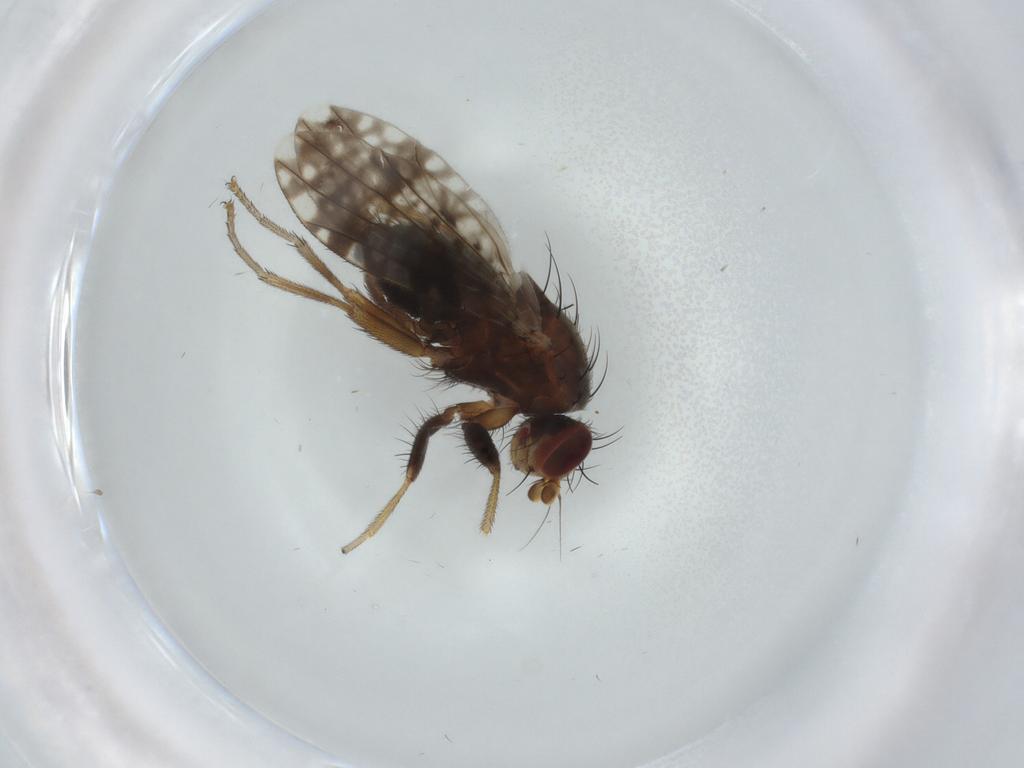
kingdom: Animalia
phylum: Arthropoda
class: Insecta
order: Diptera
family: Tephritidae
